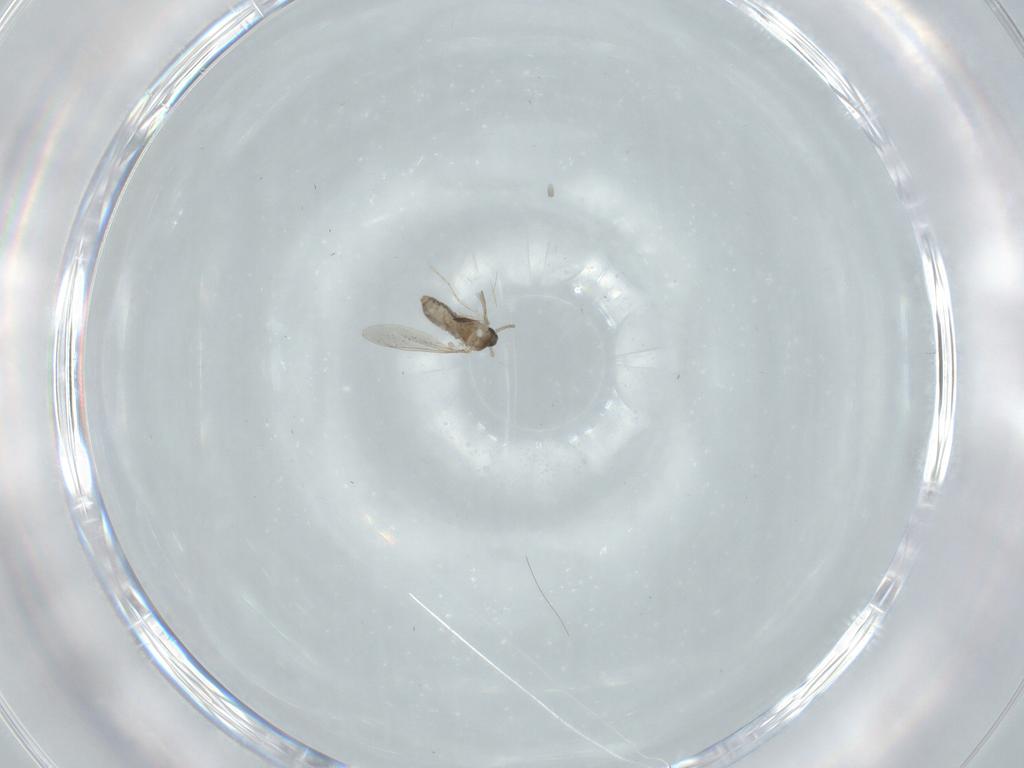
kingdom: Animalia
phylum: Arthropoda
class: Insecta
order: Diptera
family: Cecidomyiidae
